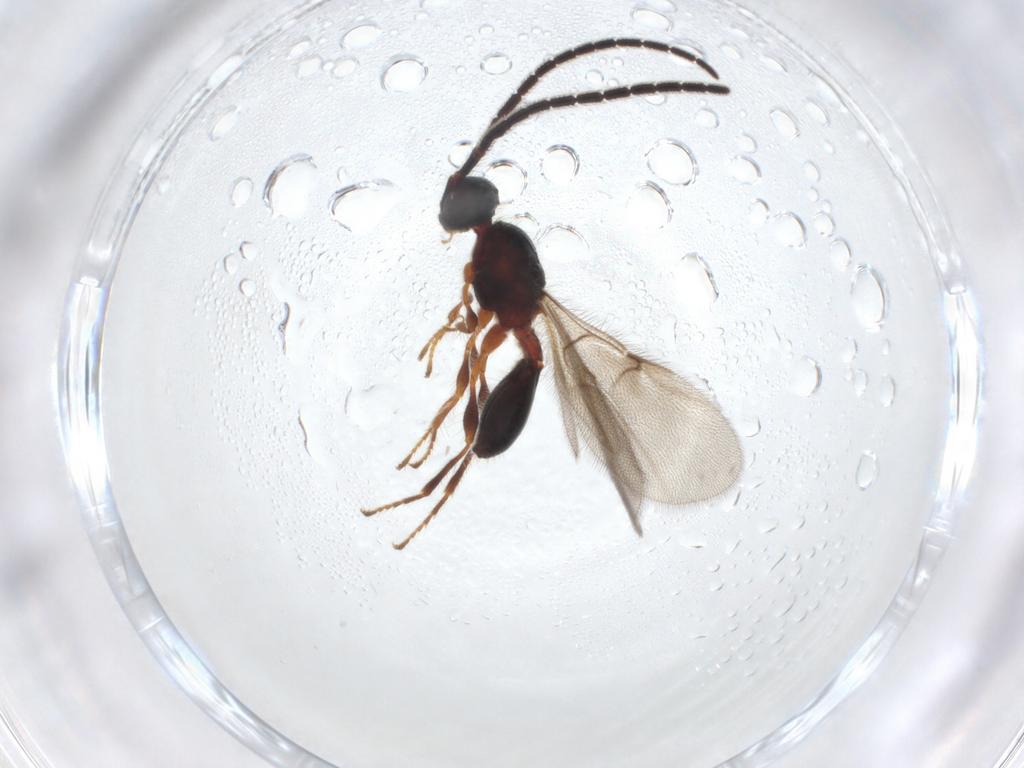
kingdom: Animalia
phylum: Arthropoda
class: Insecta
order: Hymenoptera
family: Diapriidae
